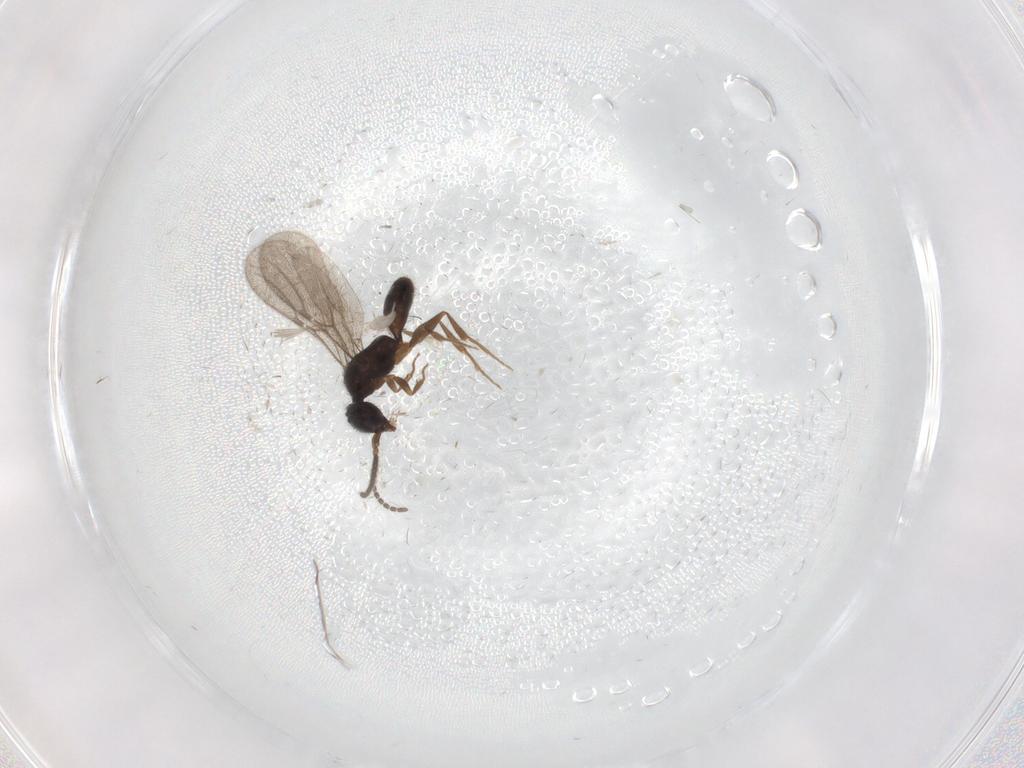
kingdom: Animalia
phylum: Arthropoda
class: Insecta
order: Hymenoptera
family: Bethylidae
